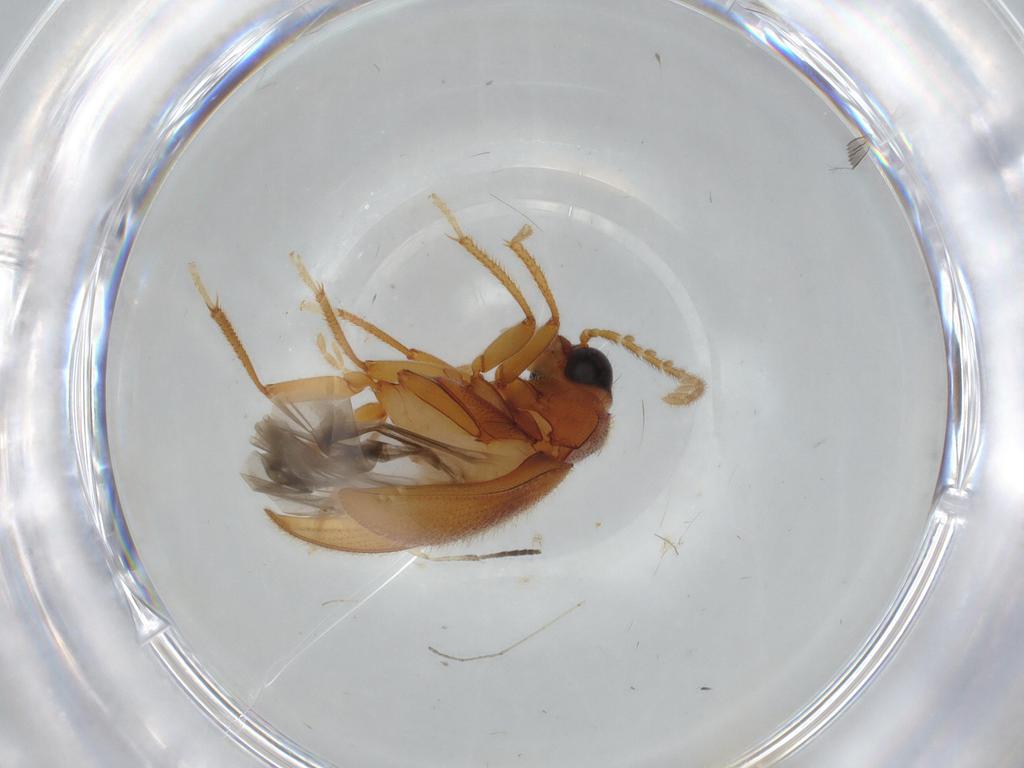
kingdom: Animalia
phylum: Arthropoda
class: Insecta
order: Coleoptera
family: Ptilodactylidae
